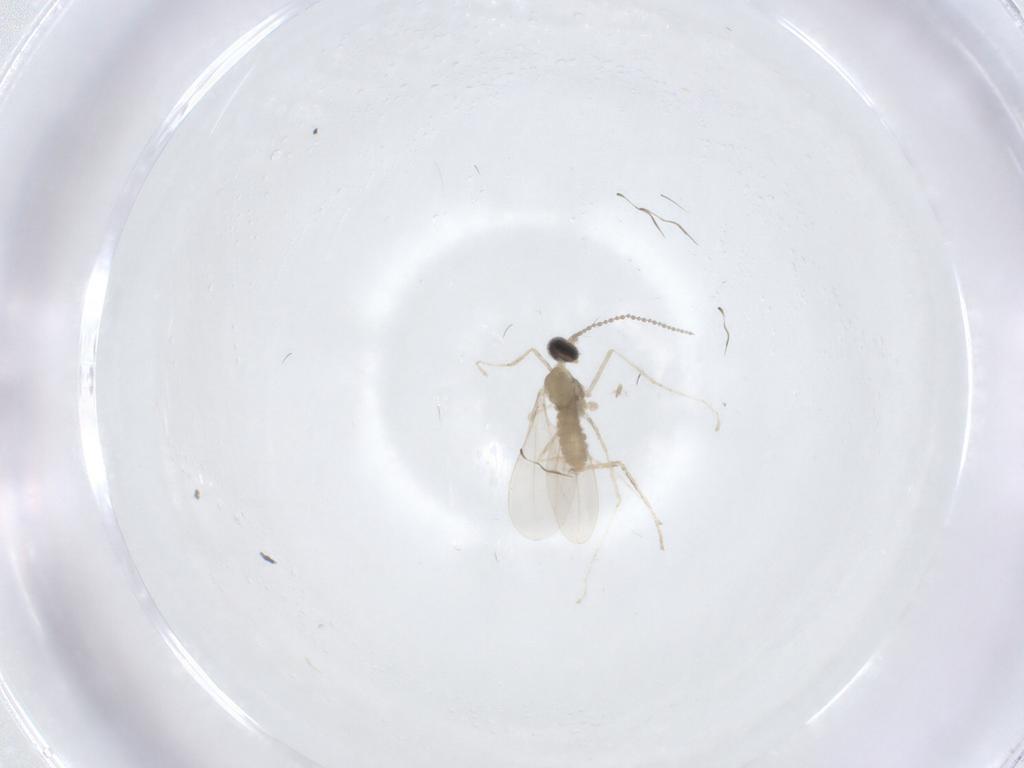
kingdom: Animalia
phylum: Arthropoda
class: Insecta
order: Diptera
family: Cecidomyiidae
